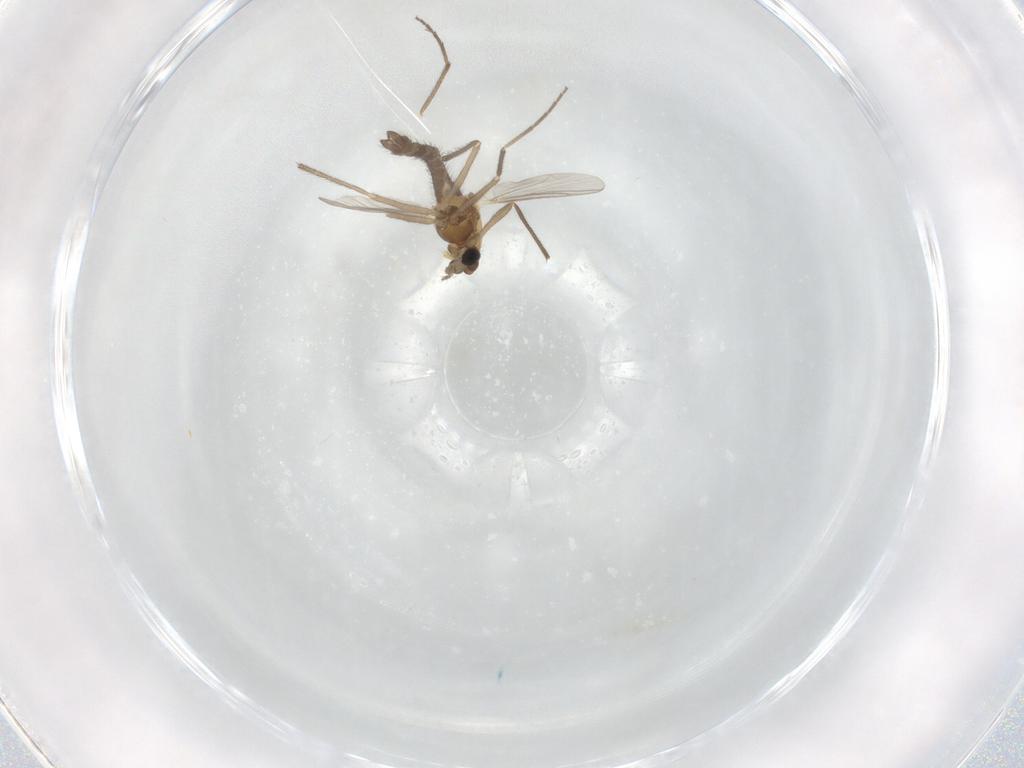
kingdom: Animalia
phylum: Arthropoda
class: Insecta
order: Diptera
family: Chironomidae
